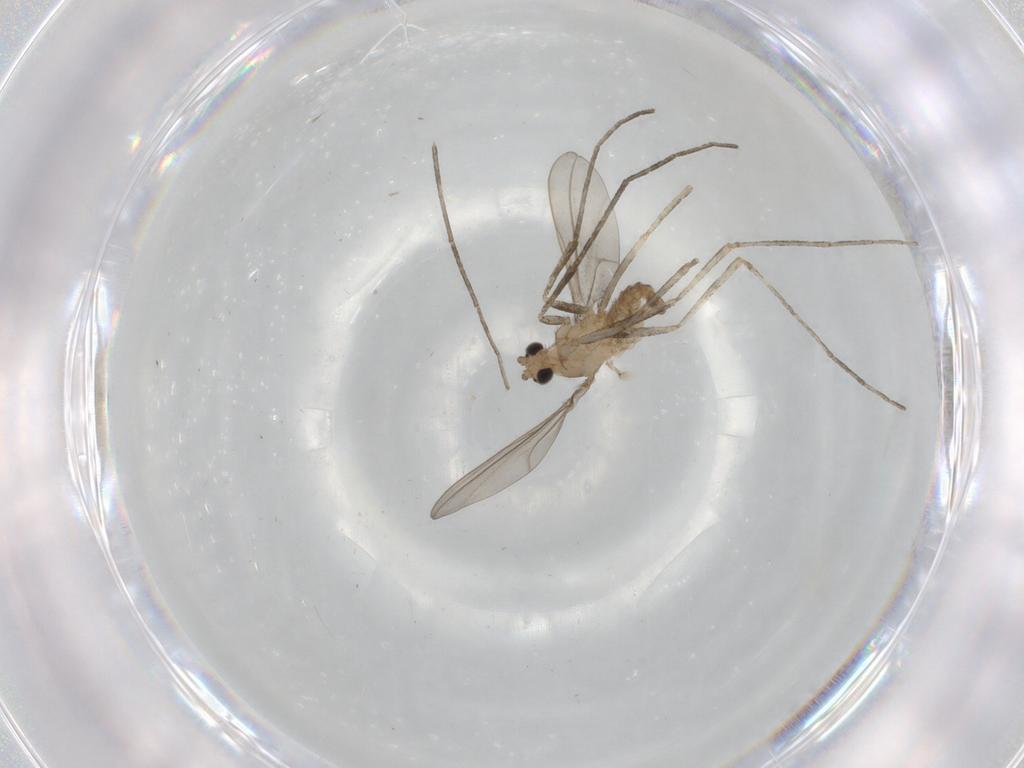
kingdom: Animalia
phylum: Arthropoda
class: Insecta
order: Diptera
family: Cecidomyiidae
